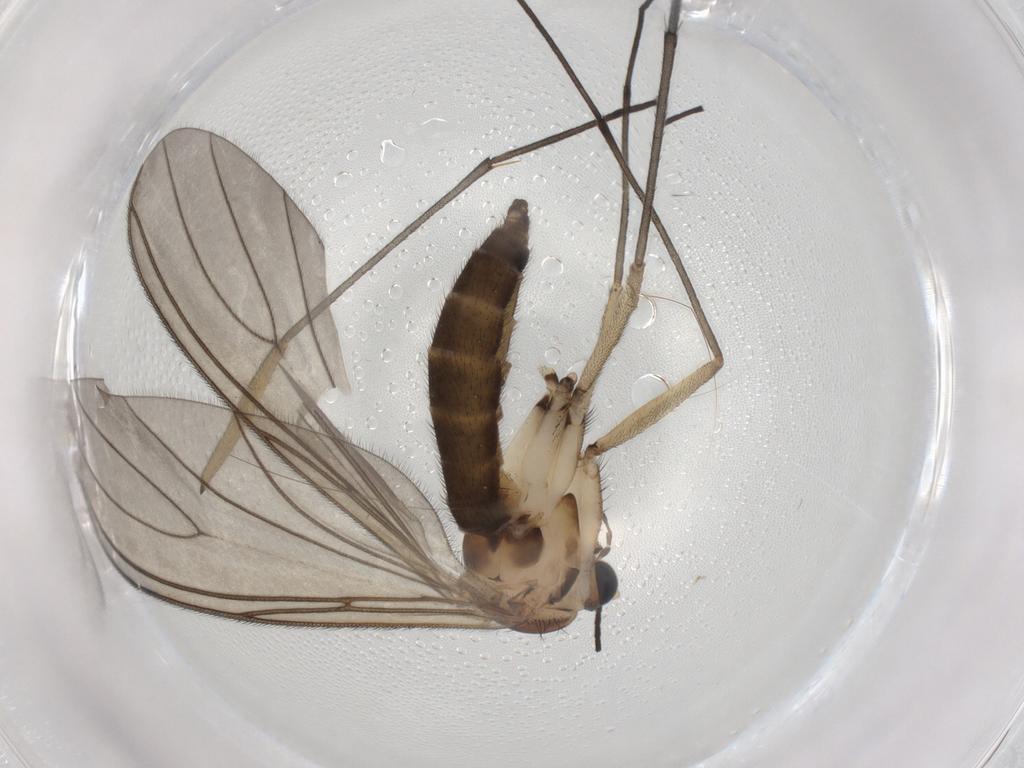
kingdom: Animalia
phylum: Arthropoda
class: Insecta
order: Diptera
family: Sciaridae
